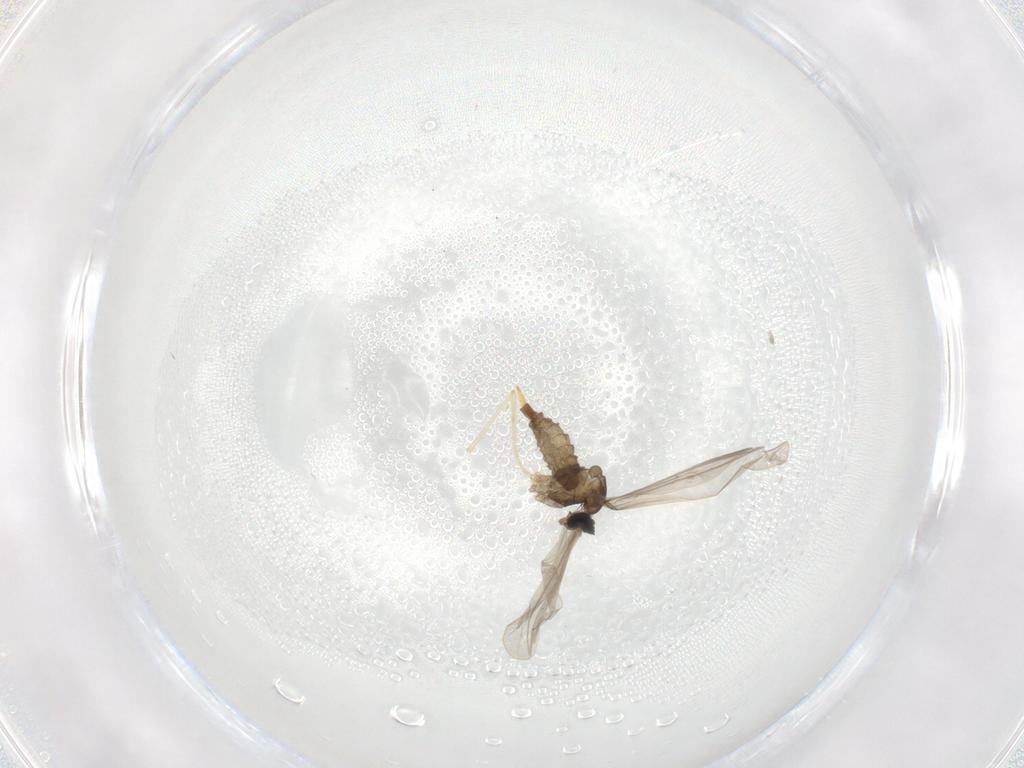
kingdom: Animalia
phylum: Arthropoda
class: Insecta
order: Diptera
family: Cecidomyiidae
